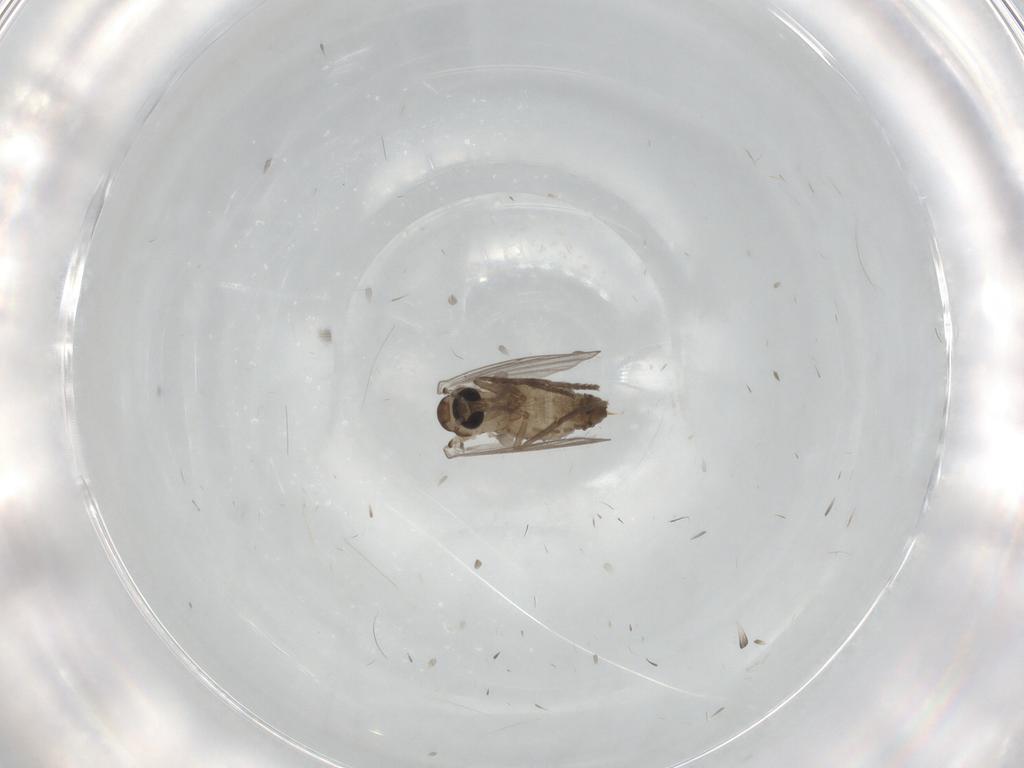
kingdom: Animalia
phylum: Arthropoda
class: Insecta
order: Diptera
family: Psychodidae
